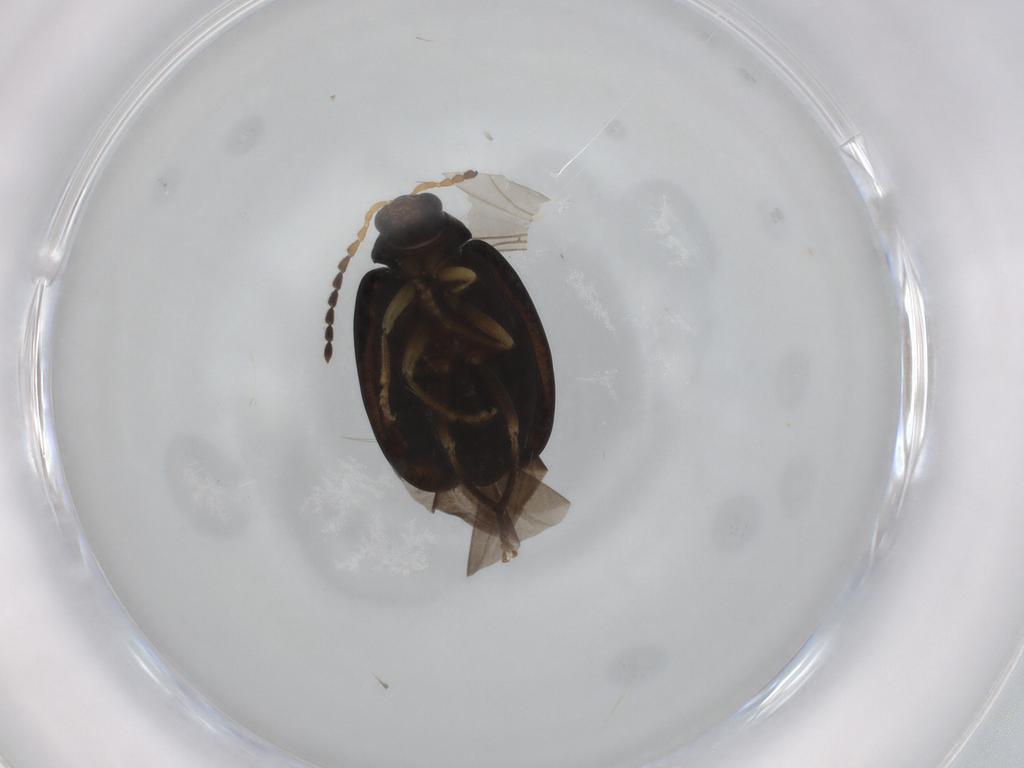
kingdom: Animalia
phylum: Arthropoda
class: Insecta
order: Coleoptera
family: Chrysomelidae
